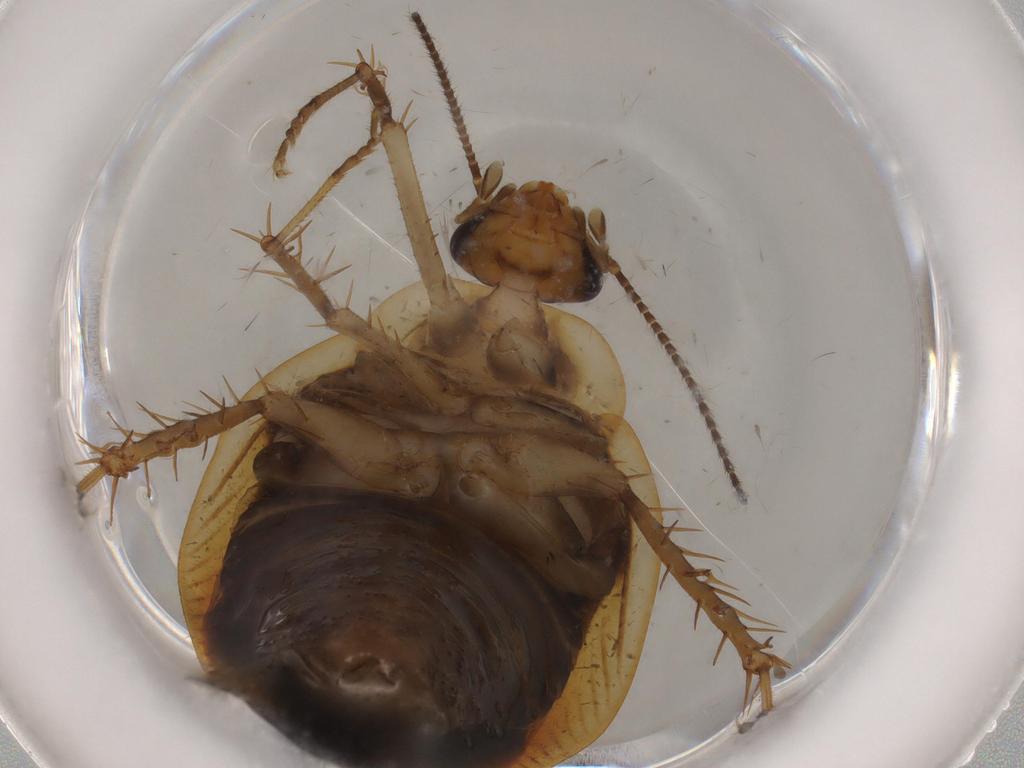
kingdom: Animalia
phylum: Arthropoda
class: Insecta
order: Blattodea
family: Ectobiidae
